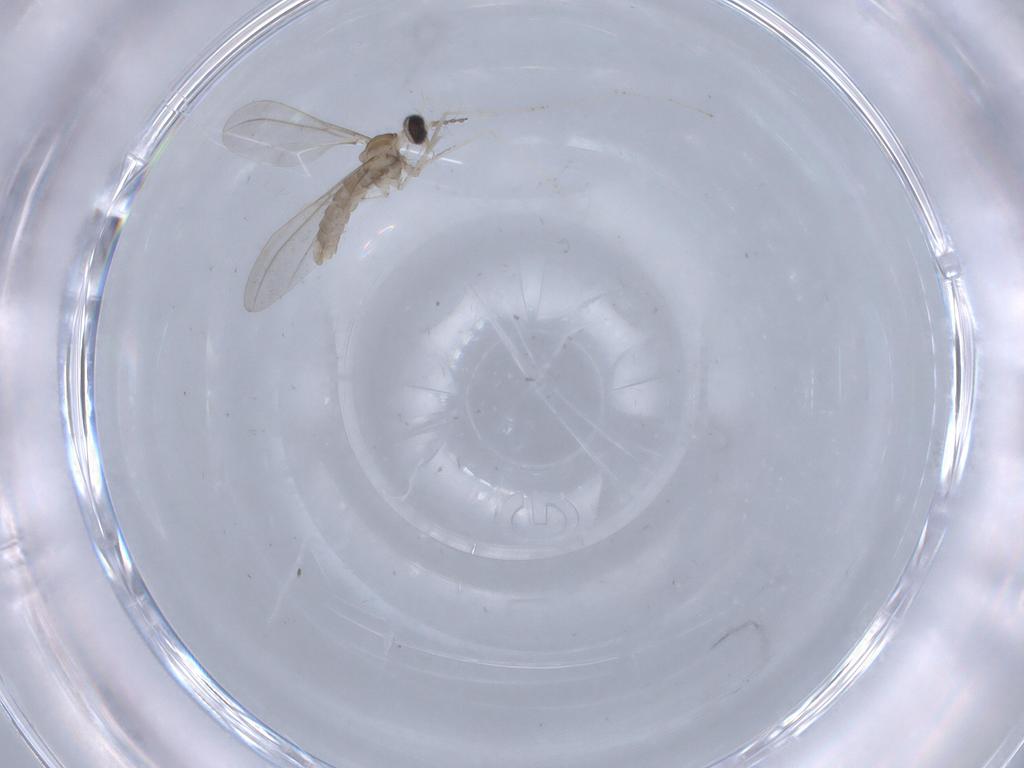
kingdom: Animalia
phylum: Arthropoda
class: Insecta
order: Diptera
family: Cecidomyiidae
